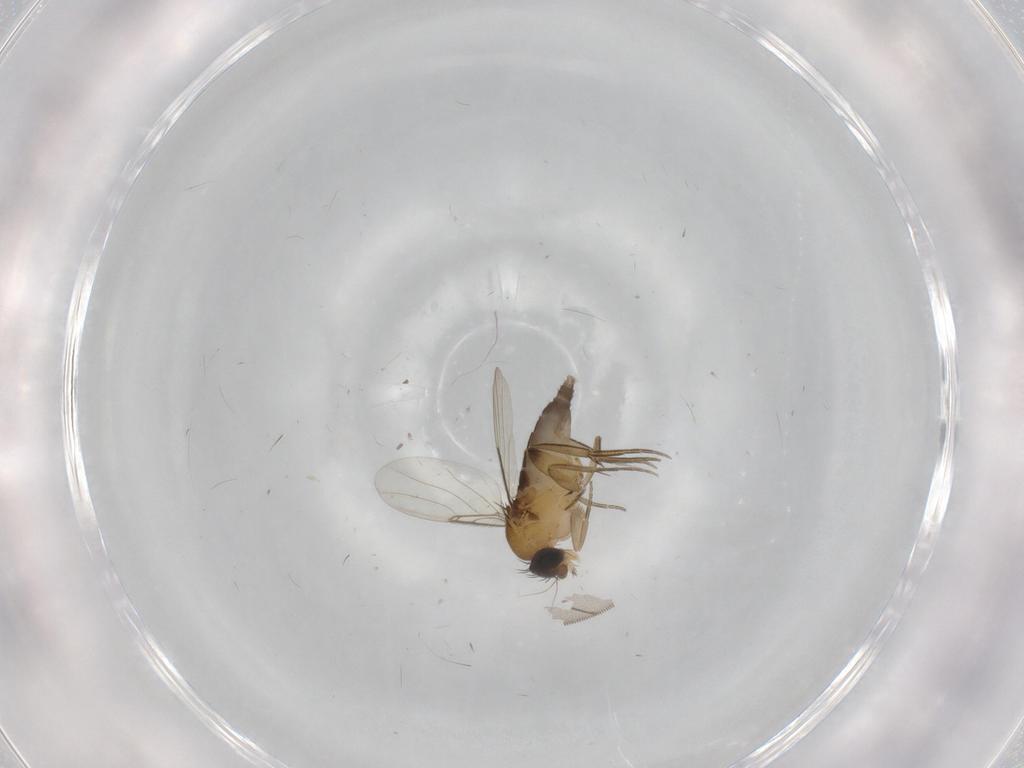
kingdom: Animalia
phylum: Arthropoda
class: Insecta
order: Diptera
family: Phoridae
